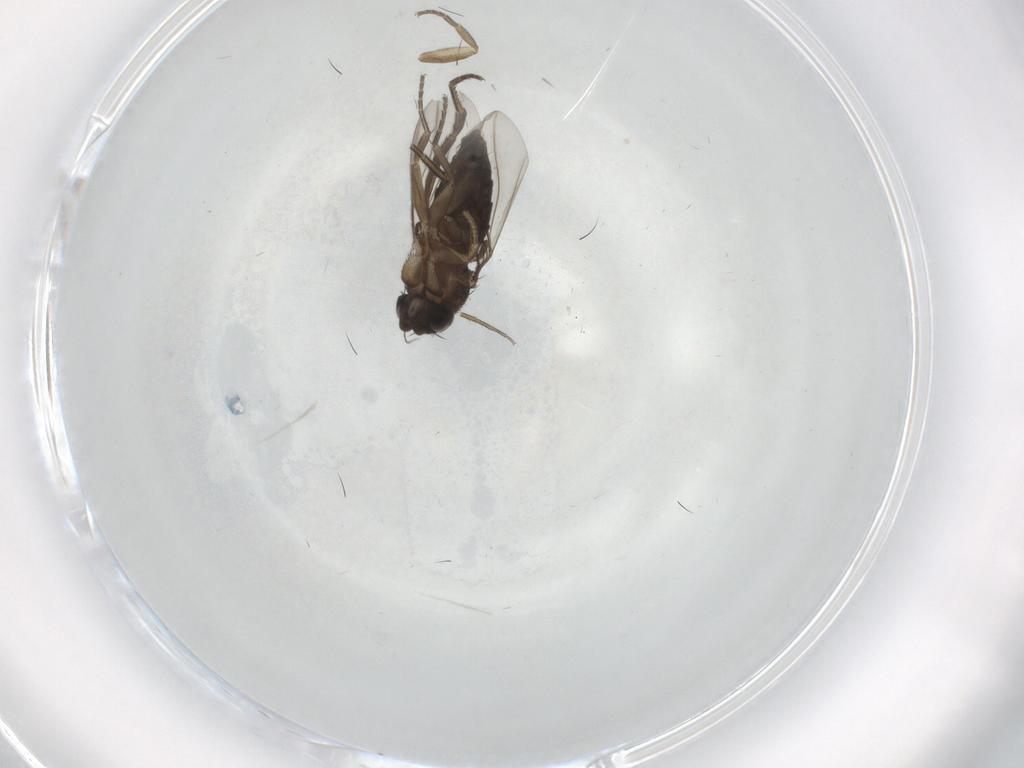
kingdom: Animalia
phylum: Arthropoda
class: Insecta
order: Diptera
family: Phoridae
